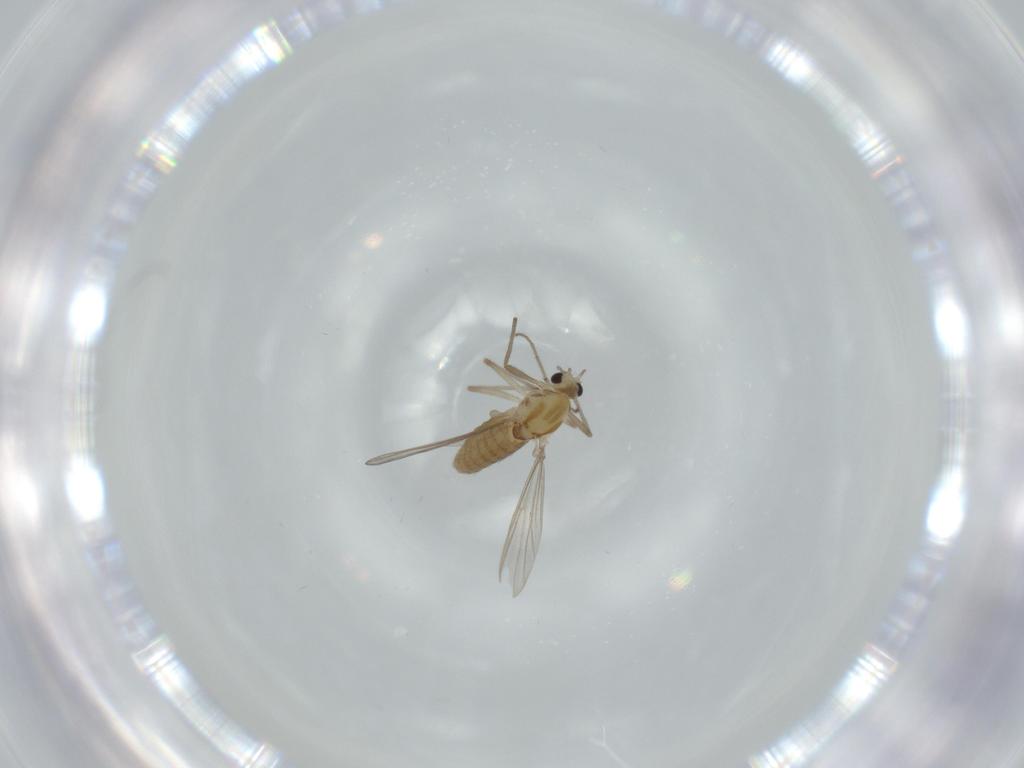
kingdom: Animalia
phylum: Arthropoda
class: Insecta
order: Diptera
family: Chironomidae
